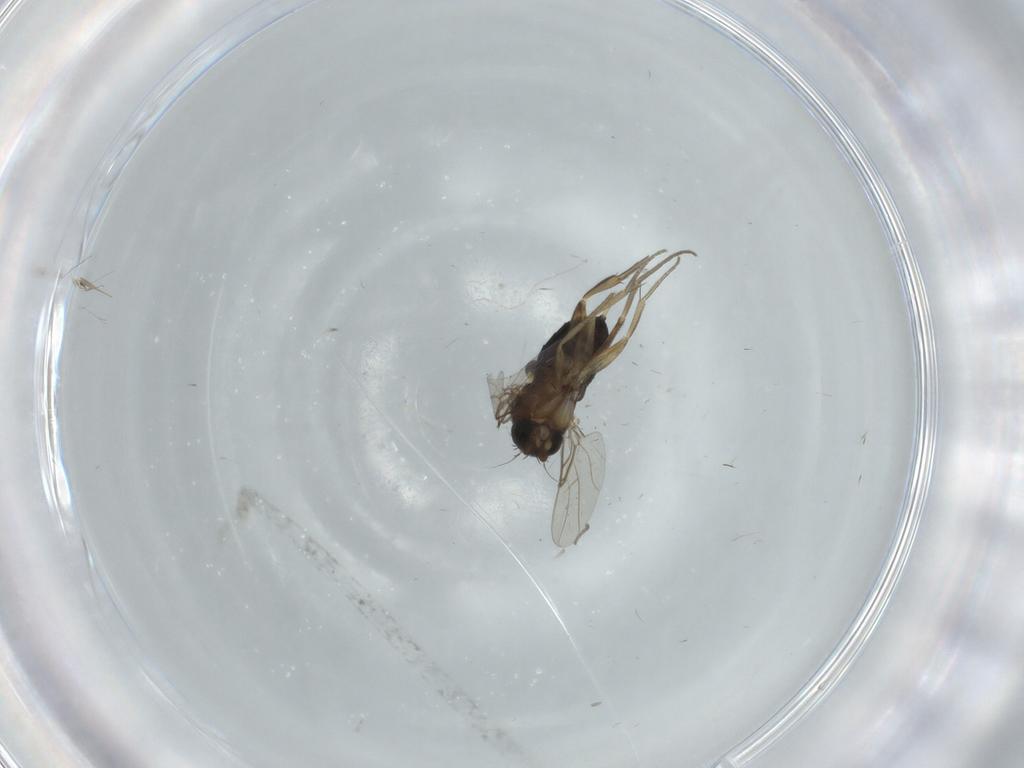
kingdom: Animalia
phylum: Arthropoda
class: Insecta
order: Diptera
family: Cecidomyiidae
